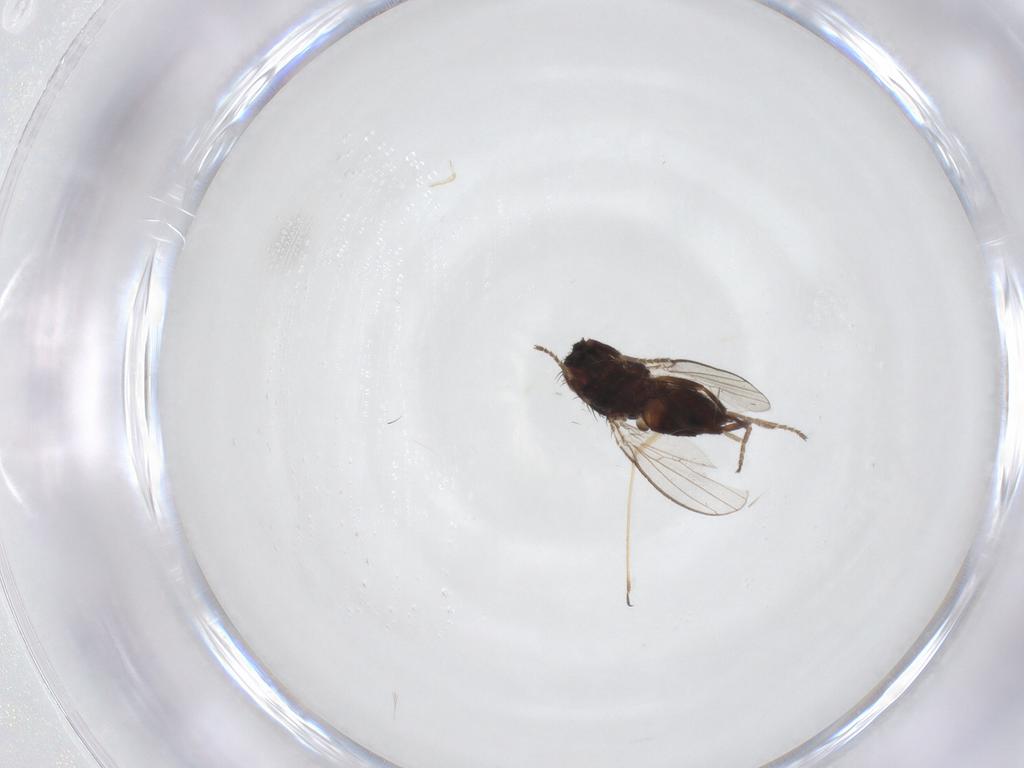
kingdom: Animalia
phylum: Arthropoda
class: Insecta
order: Diptera
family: Milichiidae
